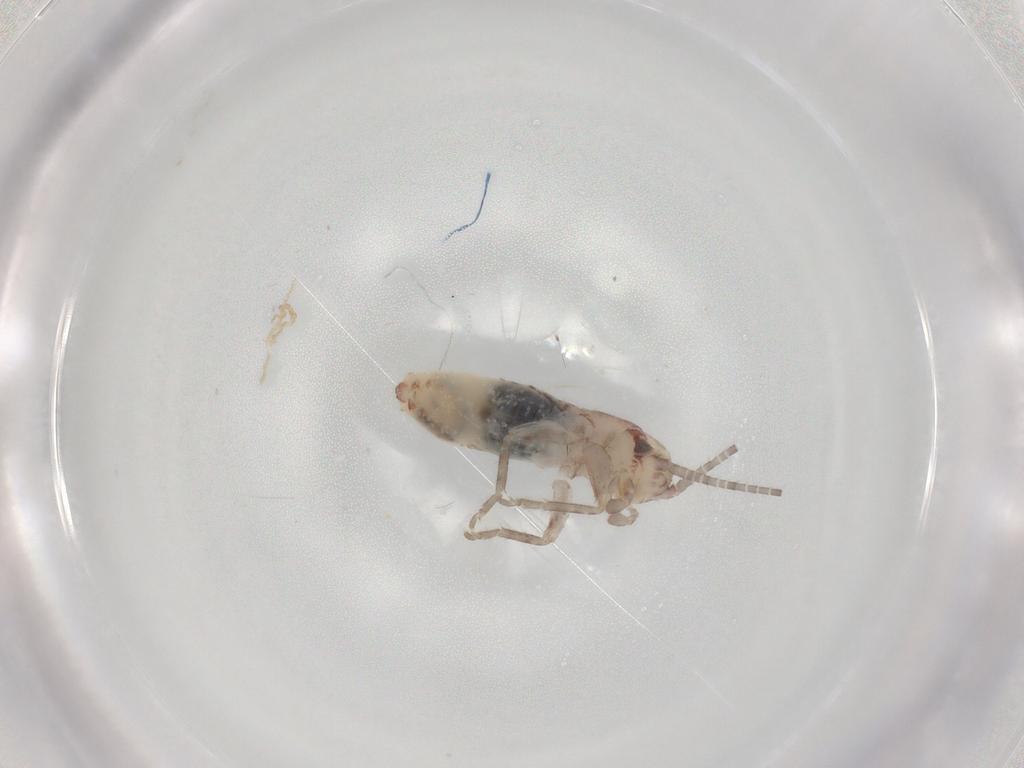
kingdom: Animalia
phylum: Arthropoda
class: Insecta
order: Orthoptera
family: Mogoplistidae
